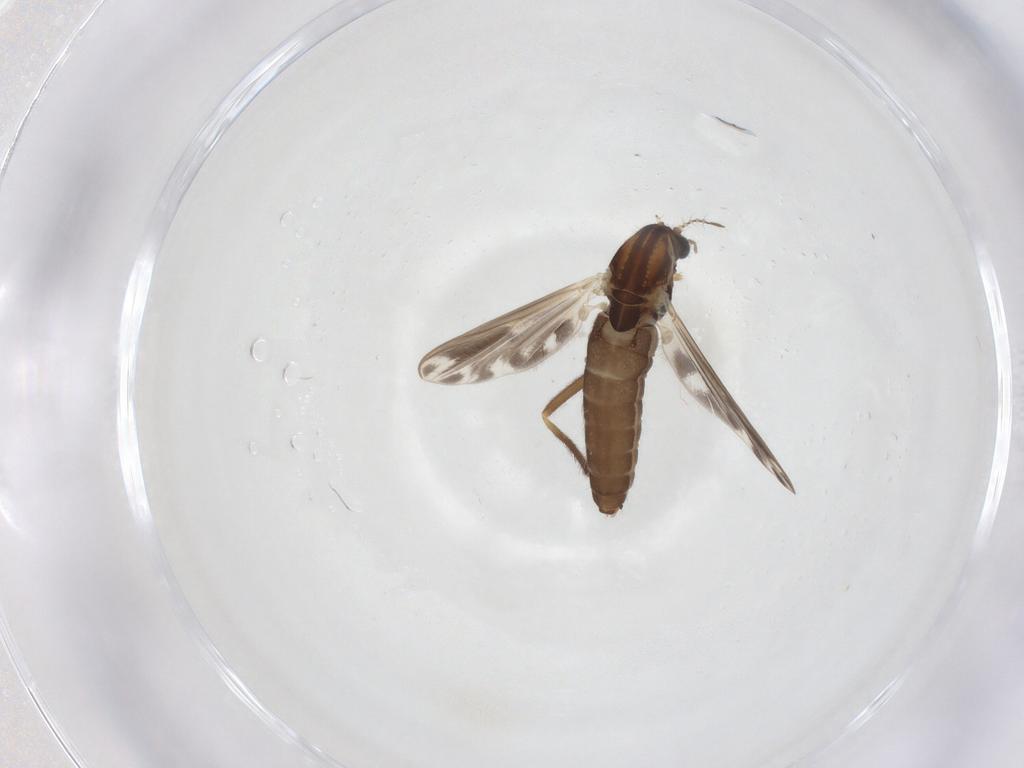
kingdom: Animalia
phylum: Arthropoda
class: Insecta
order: Diptera
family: Chironomidae
